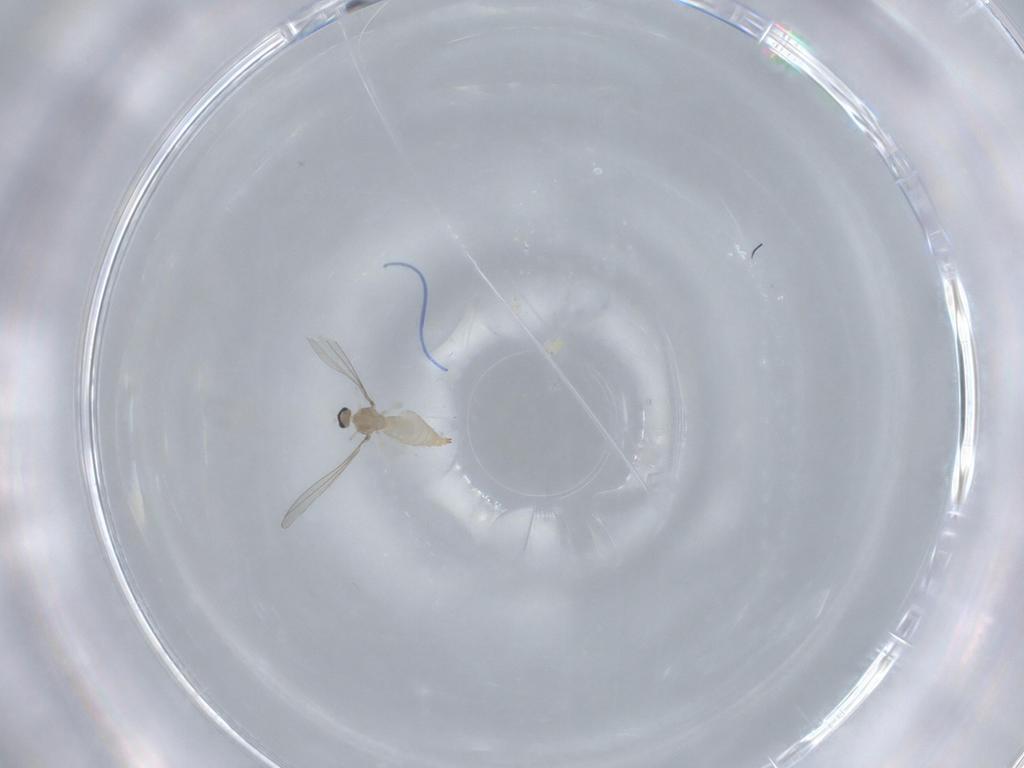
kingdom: Animalia
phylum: Arthropoda
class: Insecta
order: Diptera
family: Cecidomyiidae
